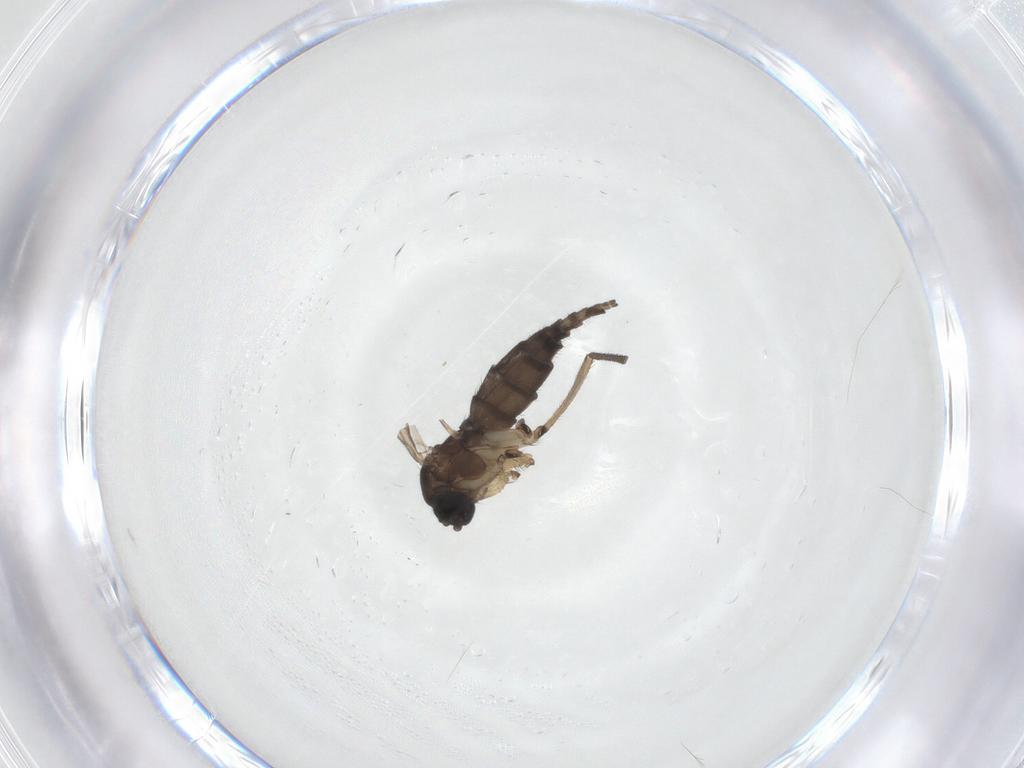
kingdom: Animalia
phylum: Arthropoda
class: Insecta
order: Diptera
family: Sciaridae
